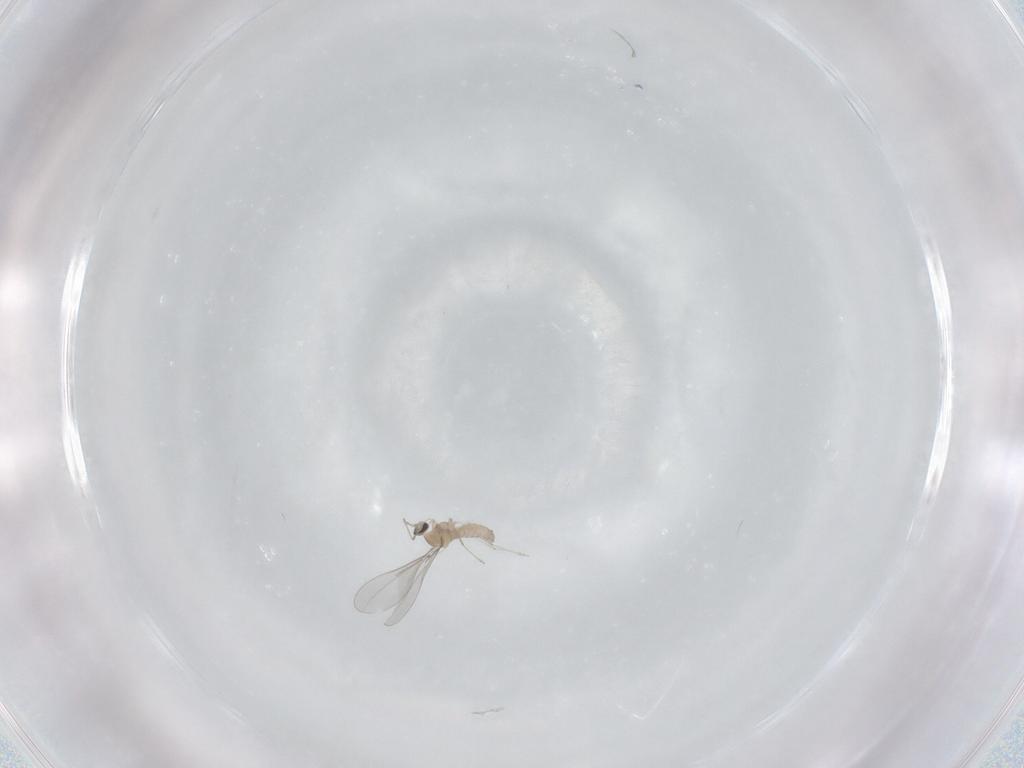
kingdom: Animalia
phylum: Arthropoda
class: Insecta
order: Diptera
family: Cecidomyiidae
